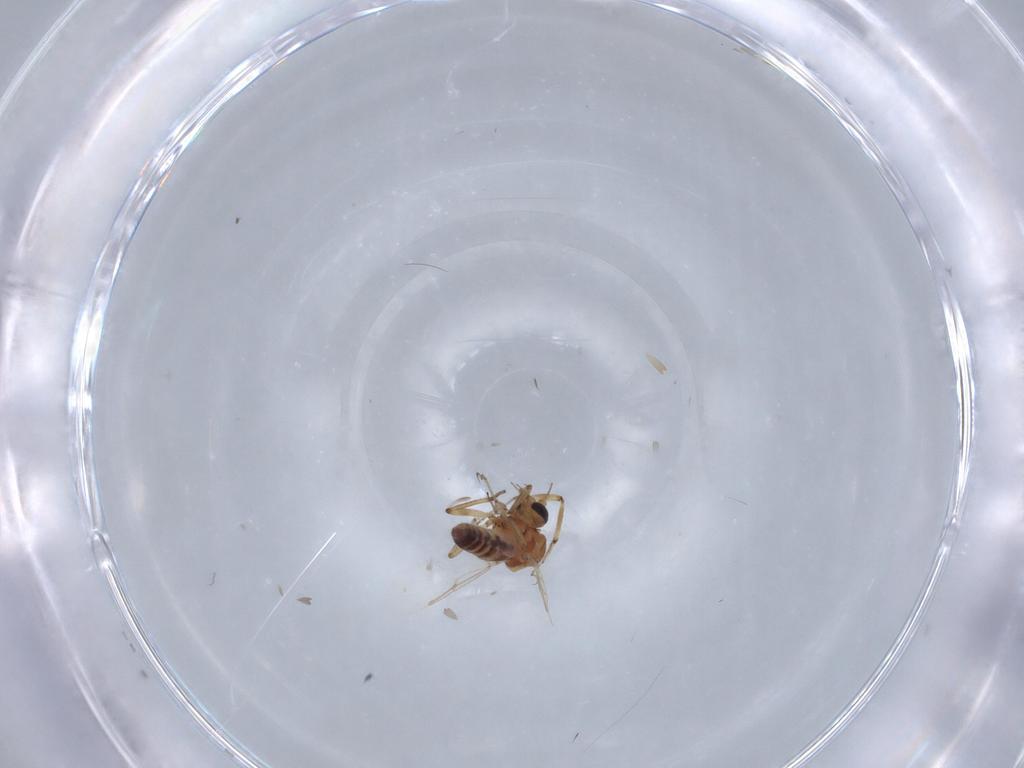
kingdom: Animalia
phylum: Arthropoda
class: Insecta
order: Diptera
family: Ceratopogonidae
